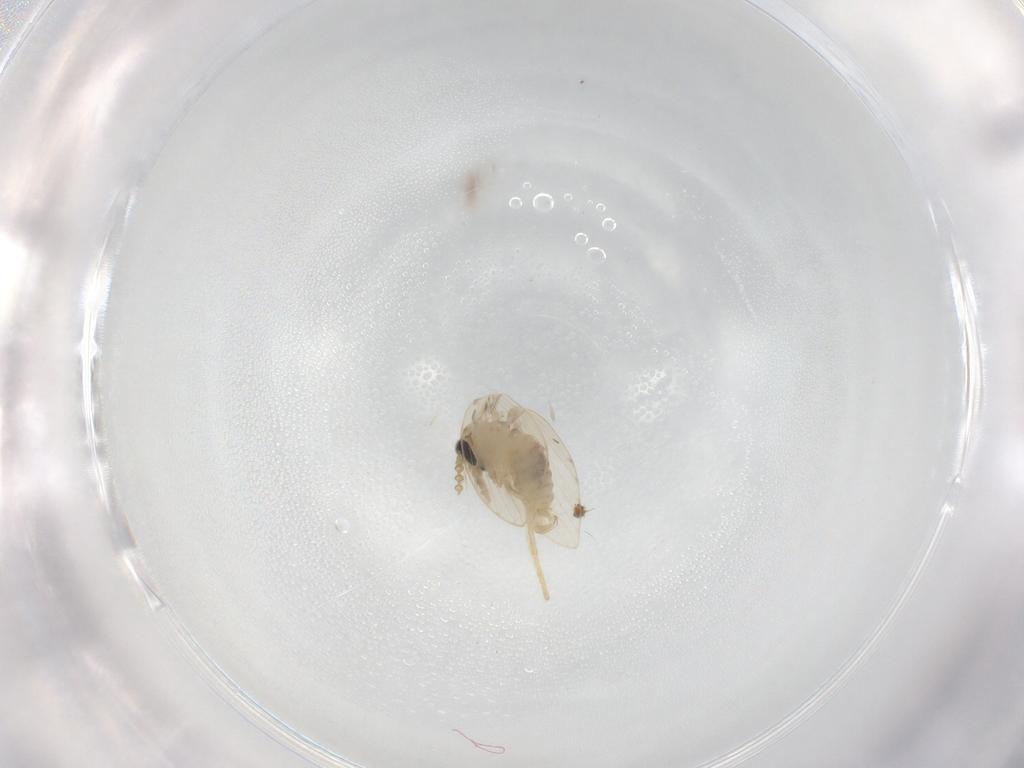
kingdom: Animalia
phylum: Arthropoda
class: Insecta
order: Diptera
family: Psychodidae
